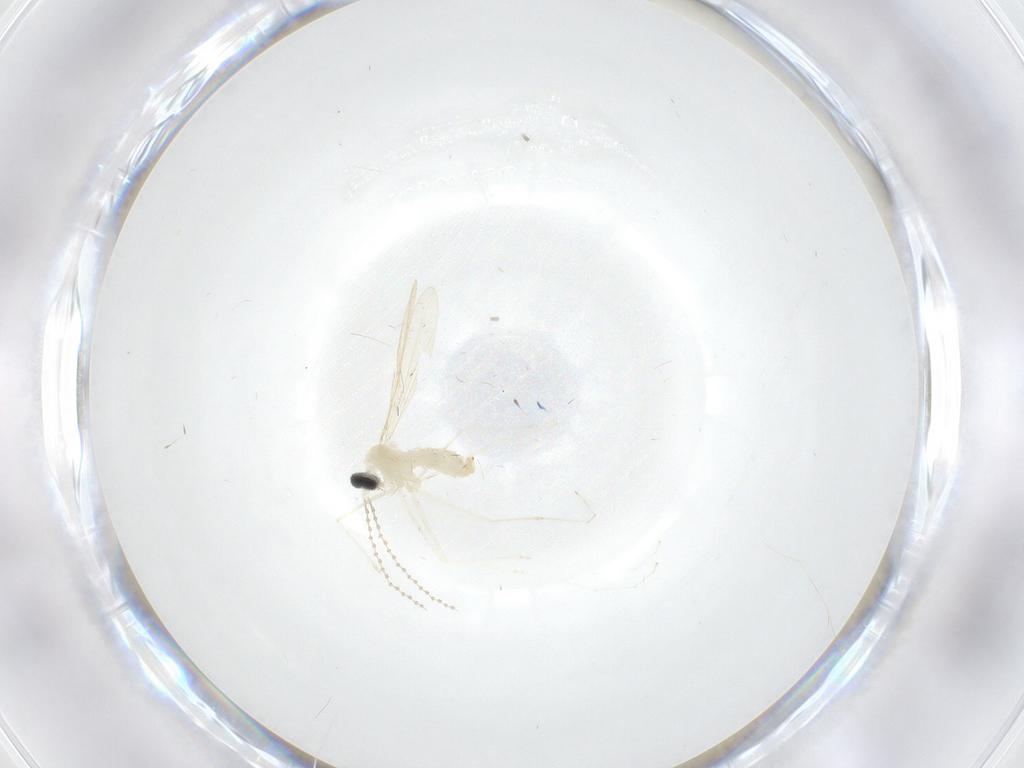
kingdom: Animalia
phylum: Arthropoda
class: Insecta
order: Diptera
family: Cecidomyiidae
